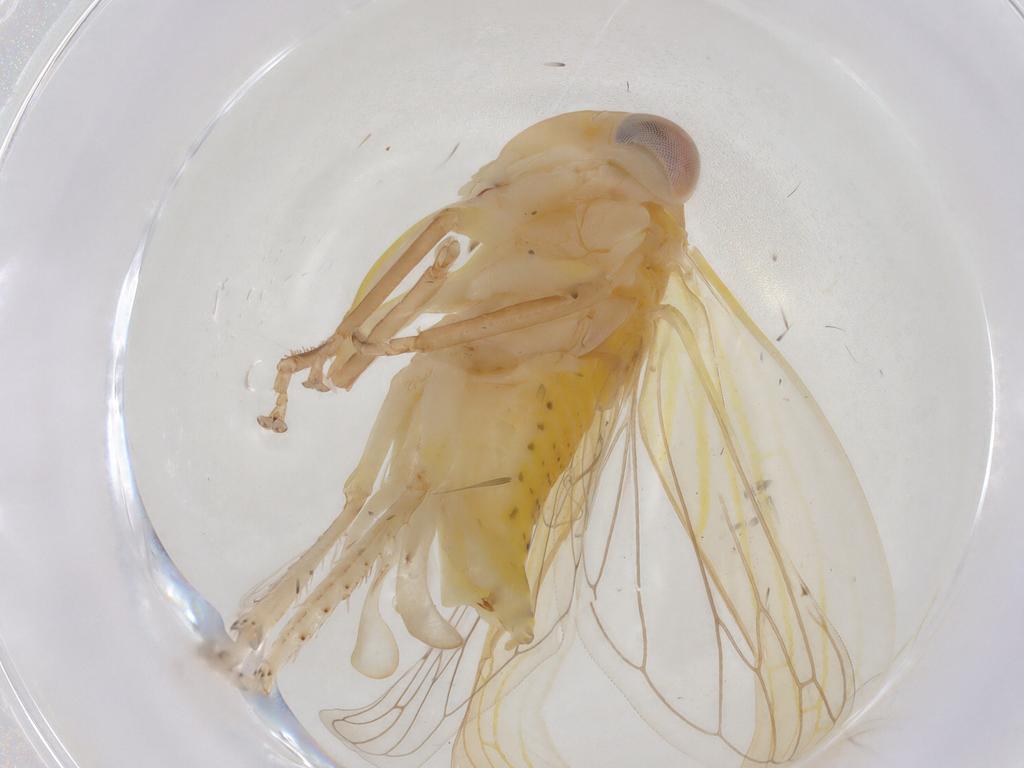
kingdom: Animalia
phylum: Arthropoda
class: Insecta
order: Hemiptera
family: Cicadellidae
